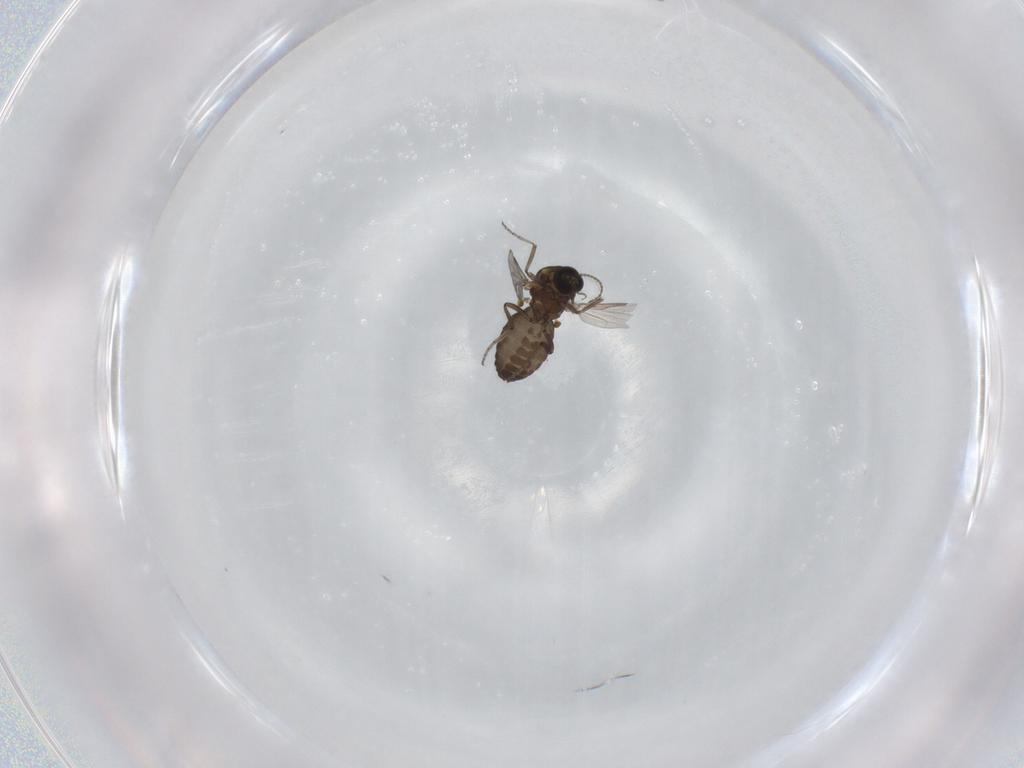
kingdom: Animalia
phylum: Arthropoda
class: Insecta
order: Diptera
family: Ceratopogonidae
